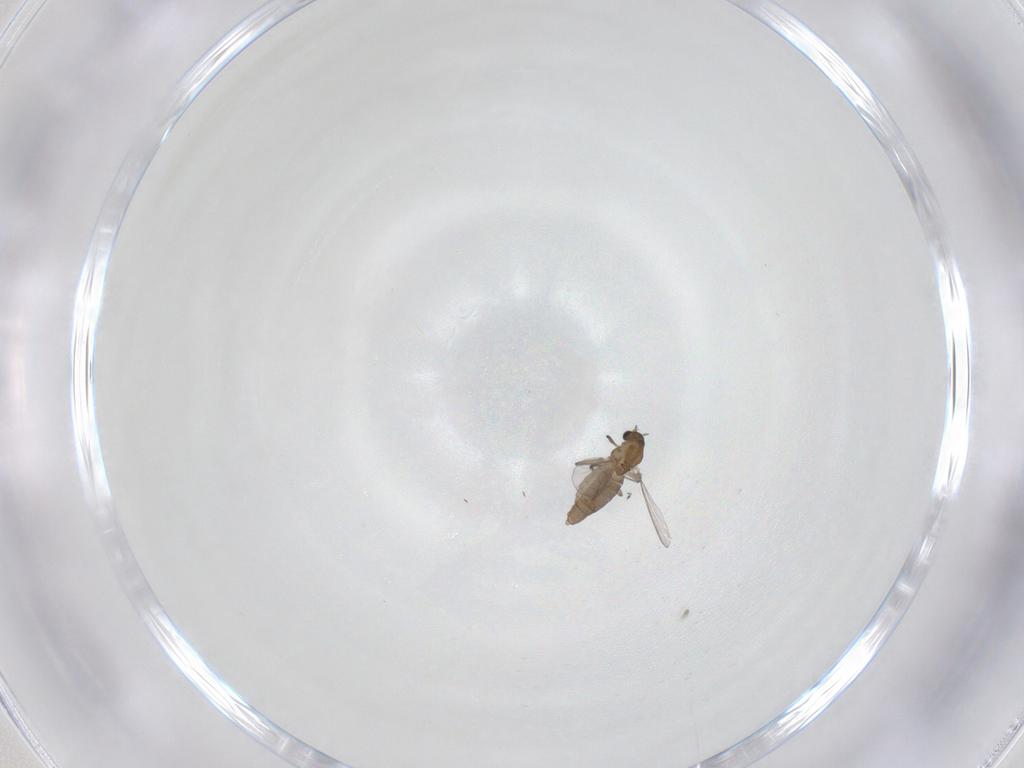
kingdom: Animalia
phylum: Arthropoda
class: Insecta
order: Diptera
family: Chironomidae
